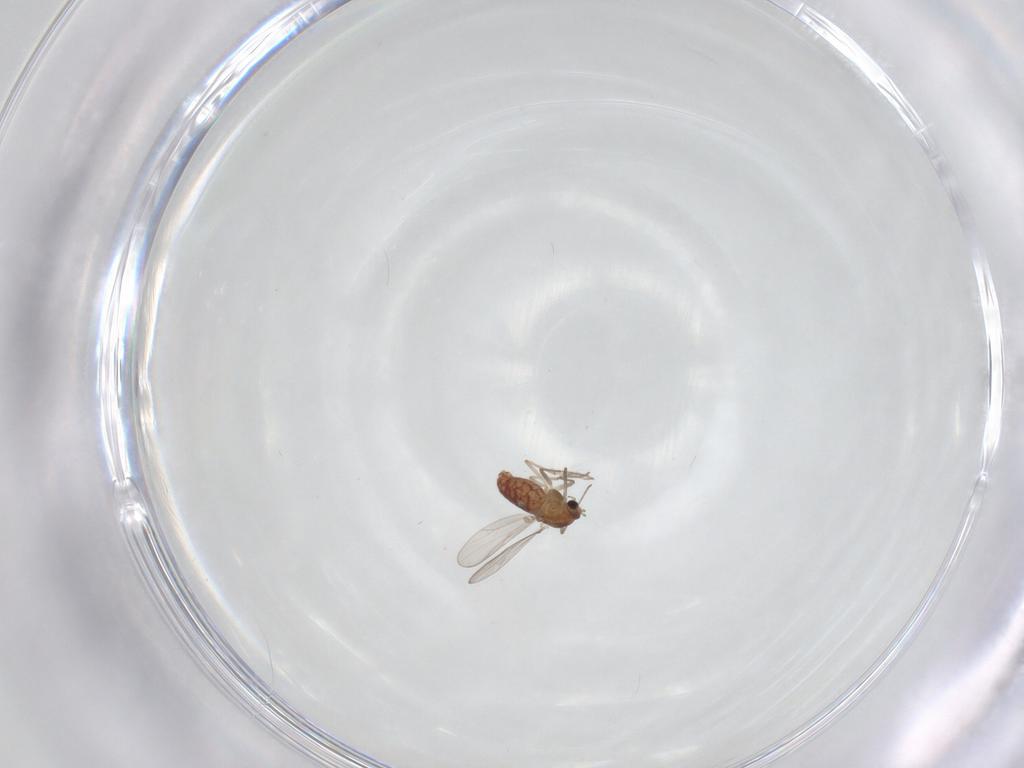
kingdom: Animalia
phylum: Arthropoda
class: Insecta
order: Diptera
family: Chironomidae
